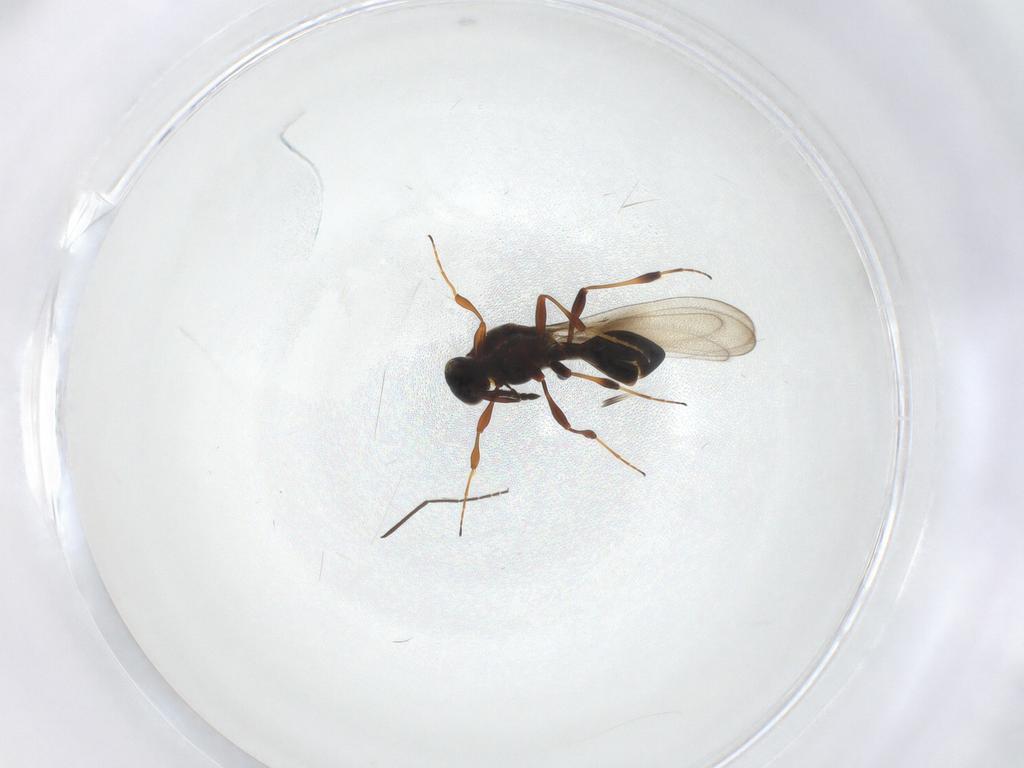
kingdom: Animalia
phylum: Arthropoda
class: Insecta
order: Hymenoptera
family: Platygastridae
